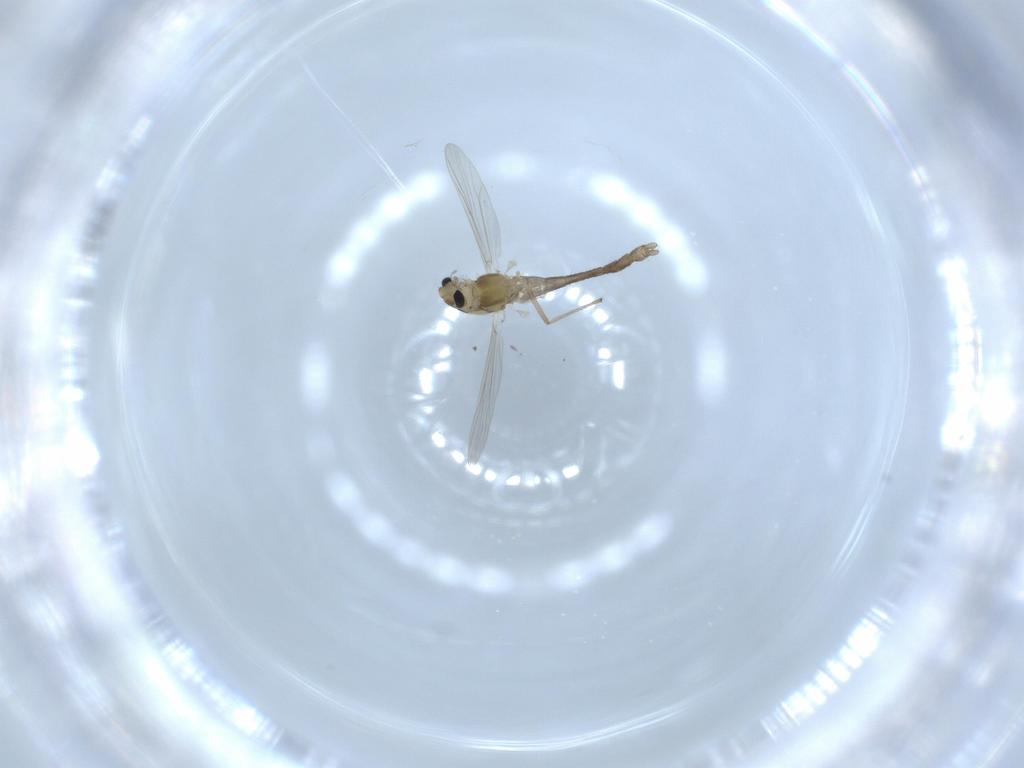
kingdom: Animalia
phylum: Arthropoda
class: Insecta
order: Diptera
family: Chironomidae
